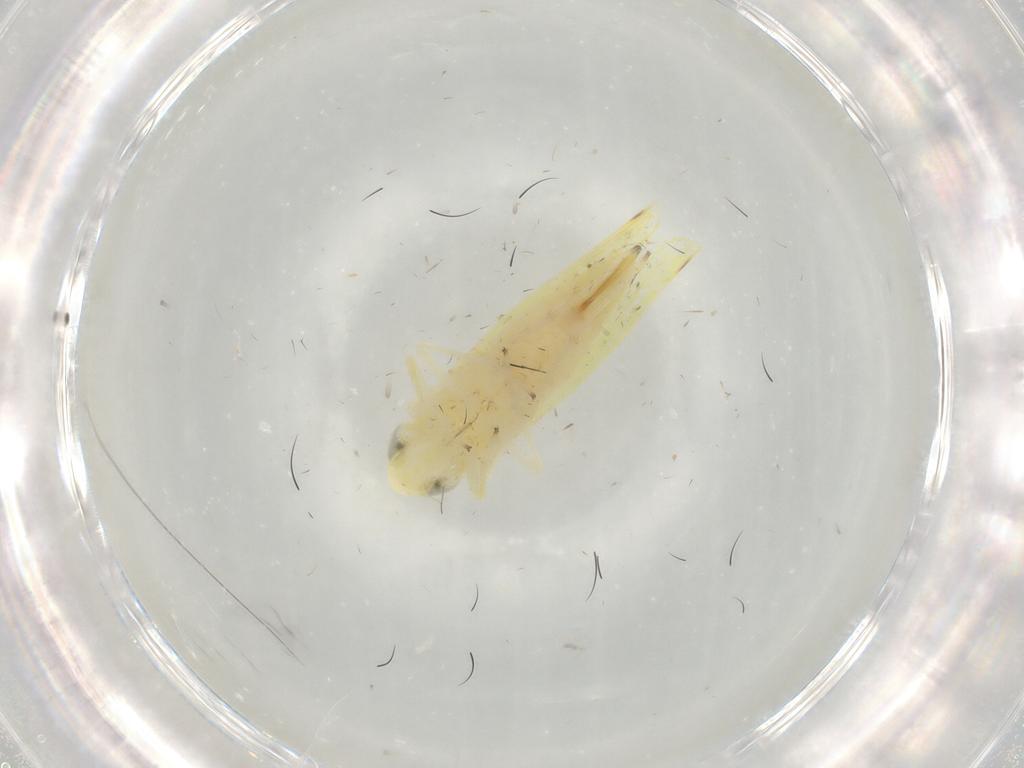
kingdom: Animalia
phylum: Arthropoda
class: Insecta
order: Hemiptera
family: Cicadellidae
